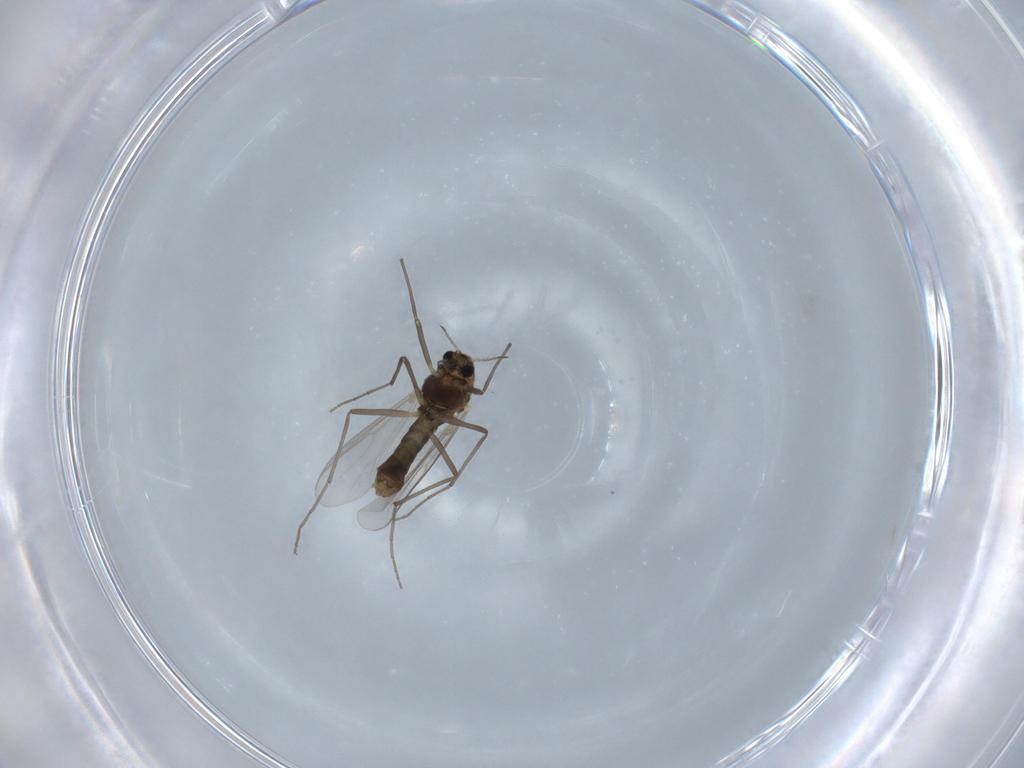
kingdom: Animalia
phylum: Arthropoda
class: Insecta
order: Diptera
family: Chironomidae
